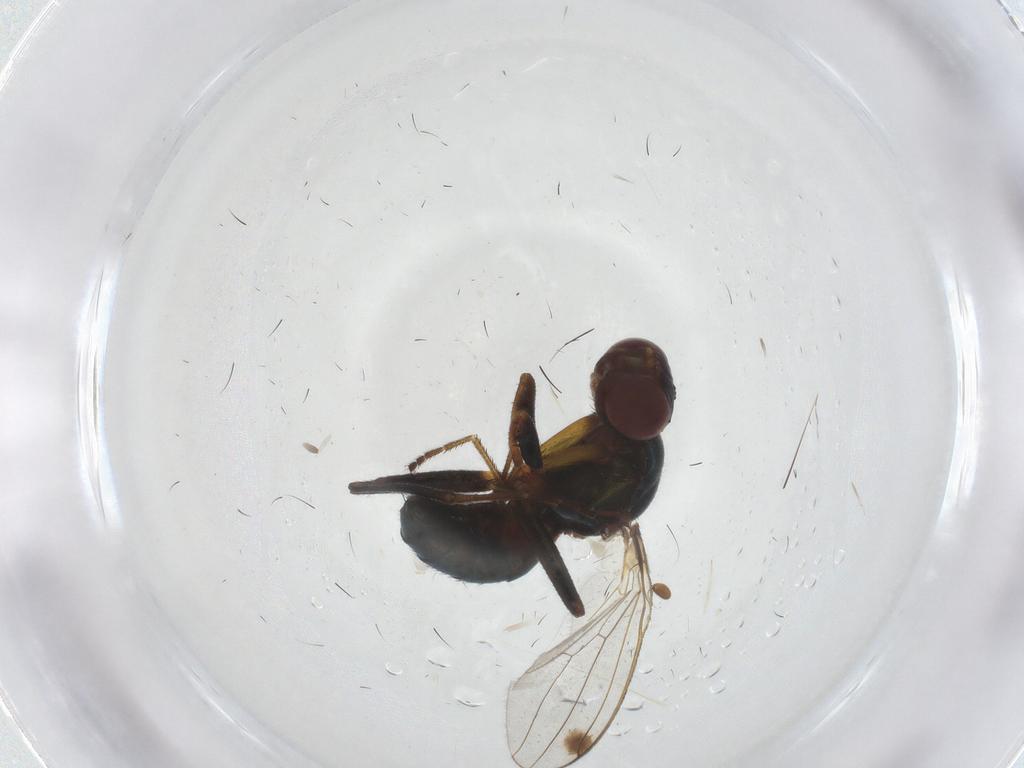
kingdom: Animalia
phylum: Arthropoda
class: Insecta
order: Diptera
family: Sepsidae
